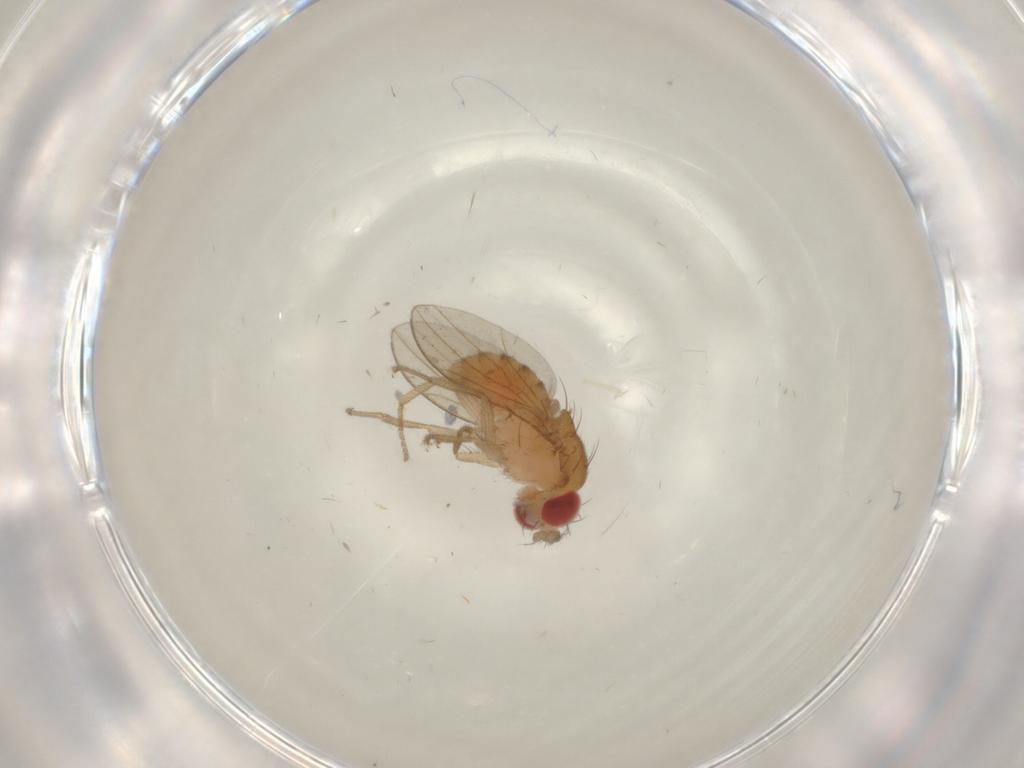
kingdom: Animalia
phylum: Arthropoda
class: Insecta
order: Diptera
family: Drosophilidae
